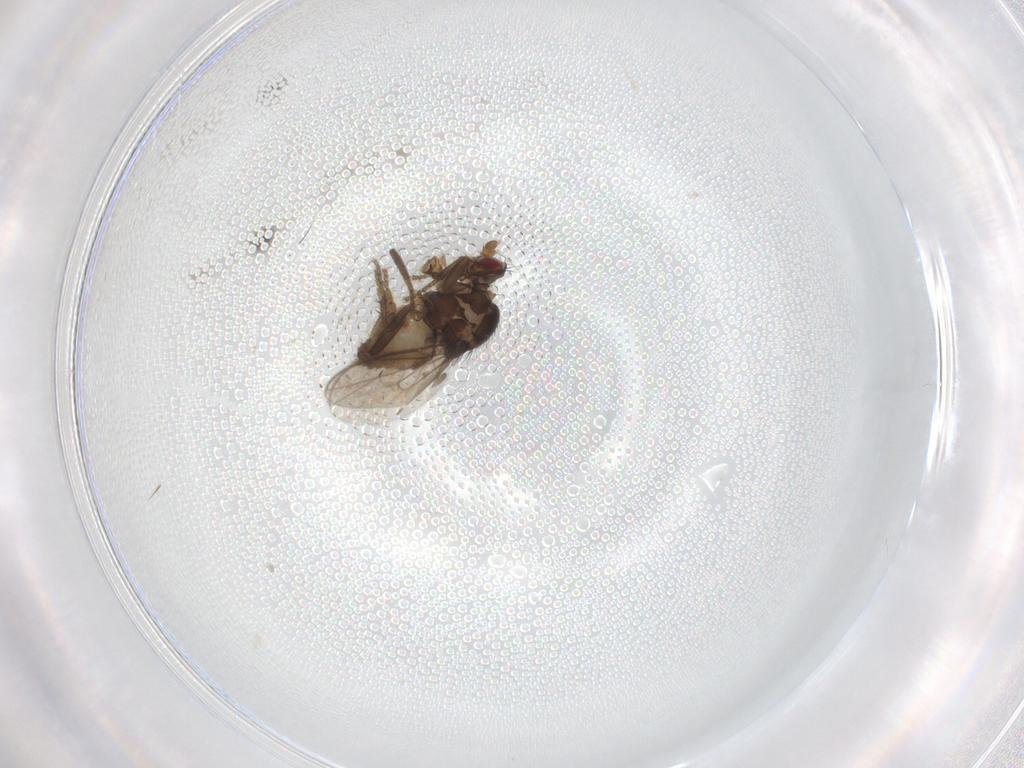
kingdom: Animalia
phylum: Arthropoda
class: Insecta
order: Diptera
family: Sphaeroceridae
